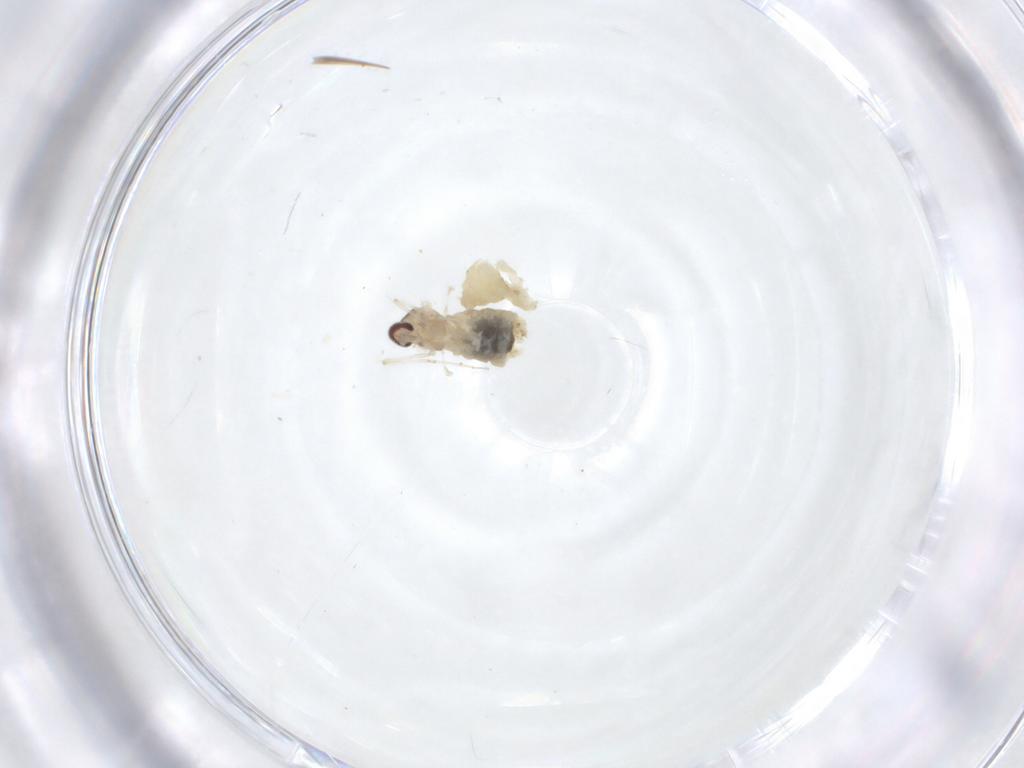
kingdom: Animalia
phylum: Arthropoda
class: Insecta
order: Diptera
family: Cecidomyiidae
